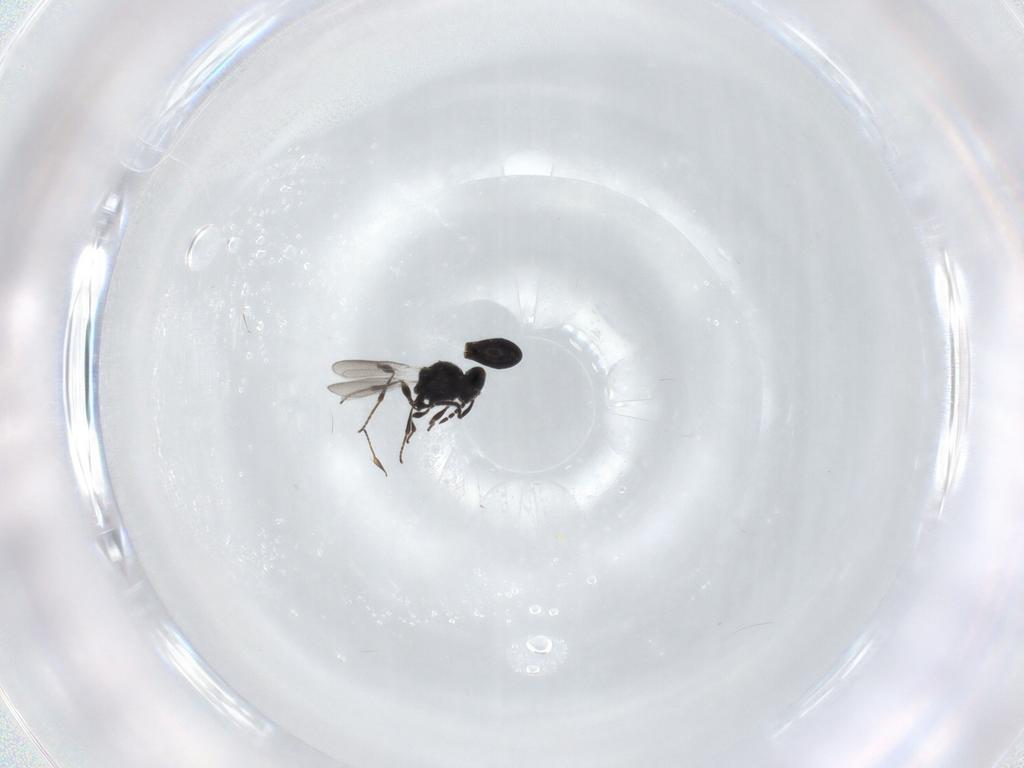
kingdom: Animalia
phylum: Arthropoda
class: Insecta
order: Hymenoptera
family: Platygastridae
